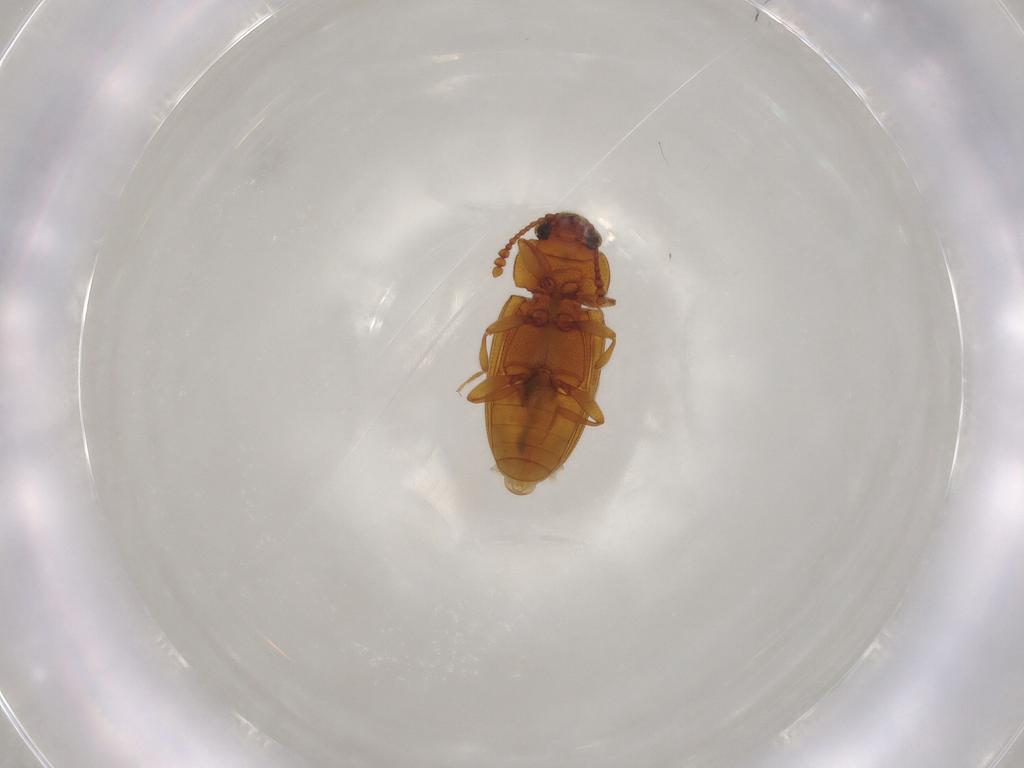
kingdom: Animalia
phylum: Arthropoda
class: Insecta
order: Coleoptera
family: Erotylidae
